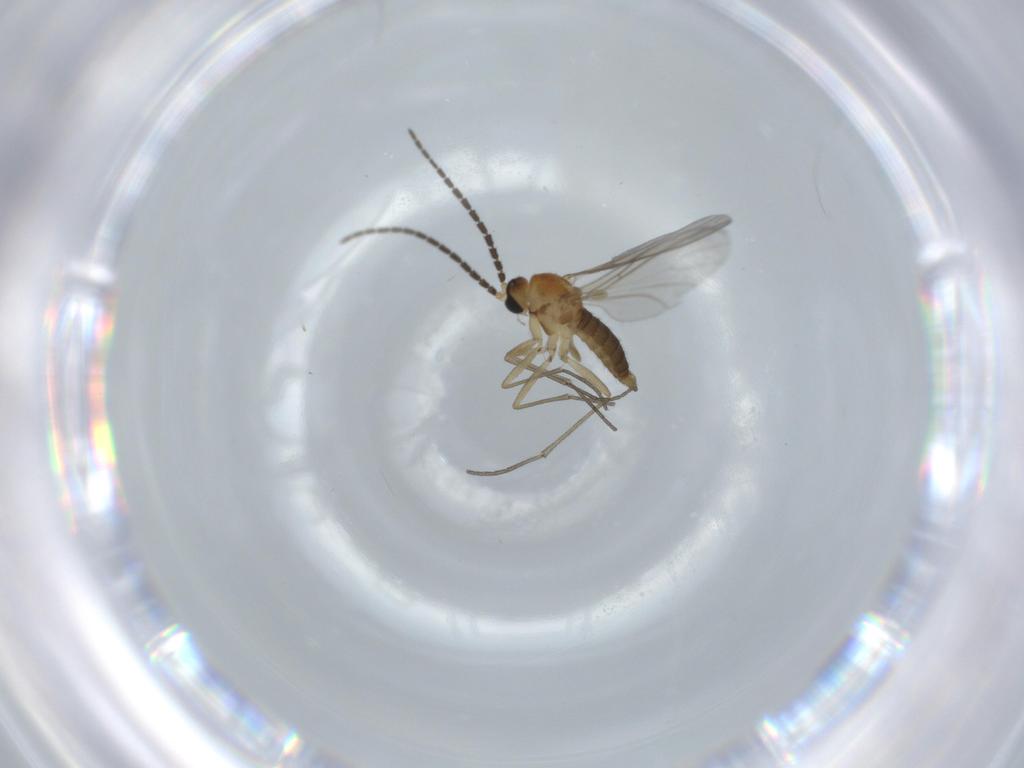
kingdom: Animalia
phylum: Arthropoda
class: Insecta
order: Diptera
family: Sciaridae
